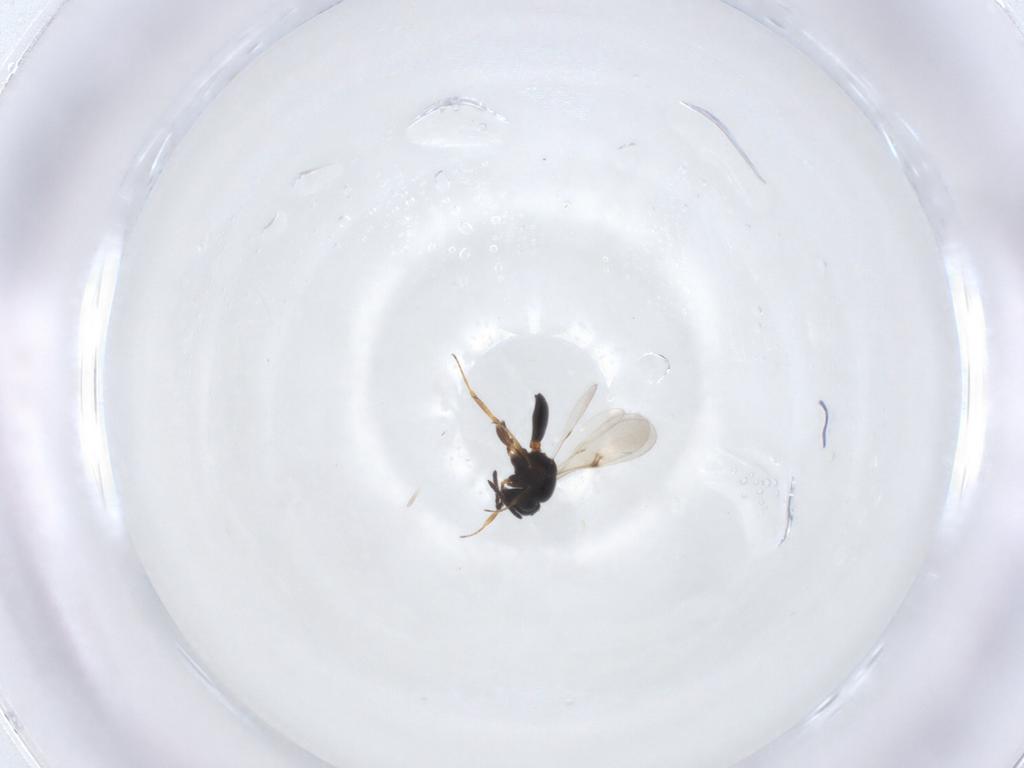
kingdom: Animalia
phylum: Arthropoda
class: Arachnida
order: Araneae
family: Pholcidae
